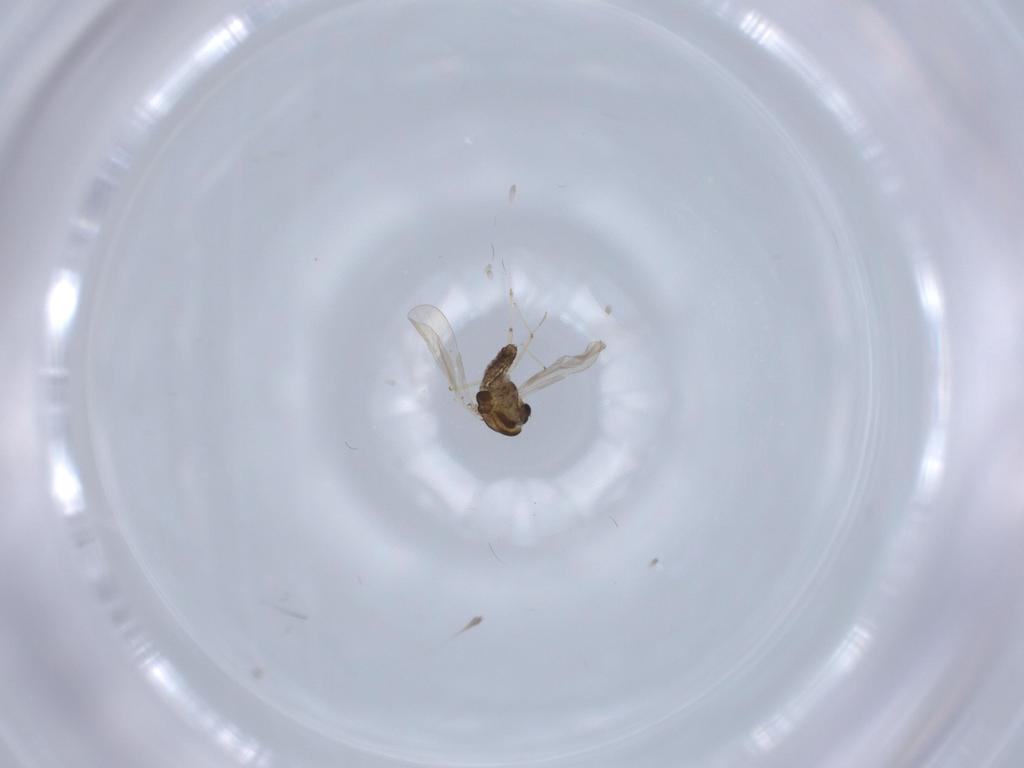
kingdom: Animalia
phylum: Arthropoda
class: Insecta
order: Diptera
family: Chironomidae
